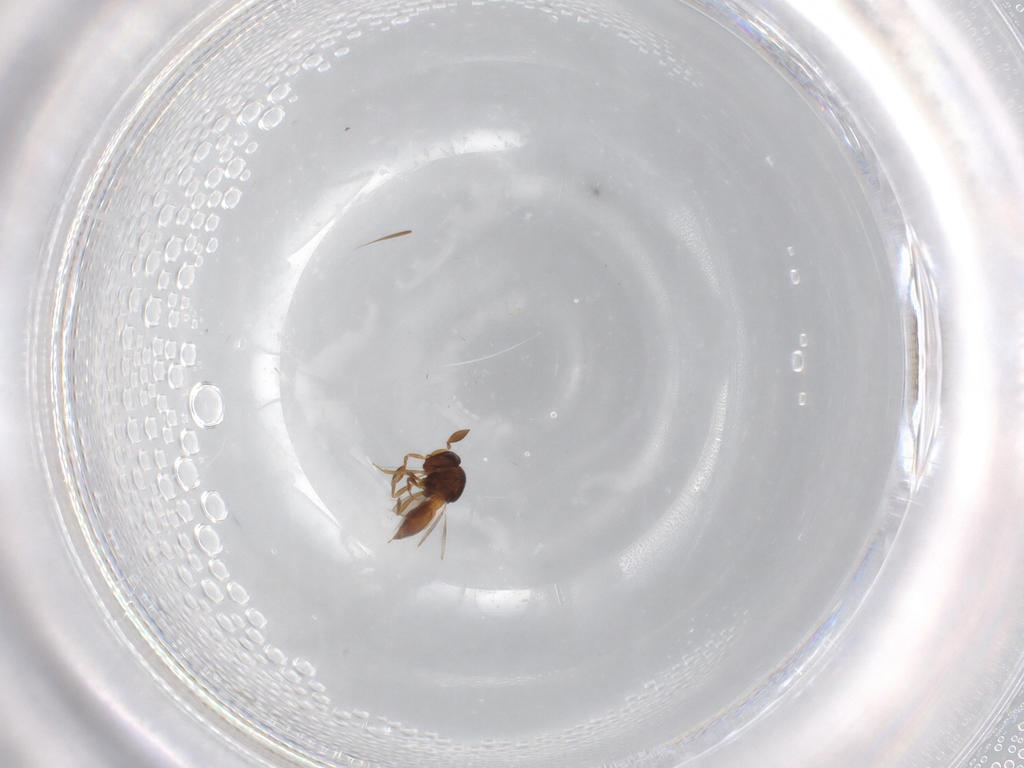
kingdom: Animalia
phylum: Arthropoda
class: Insecta
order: Hymenoptera
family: Scelionidae
